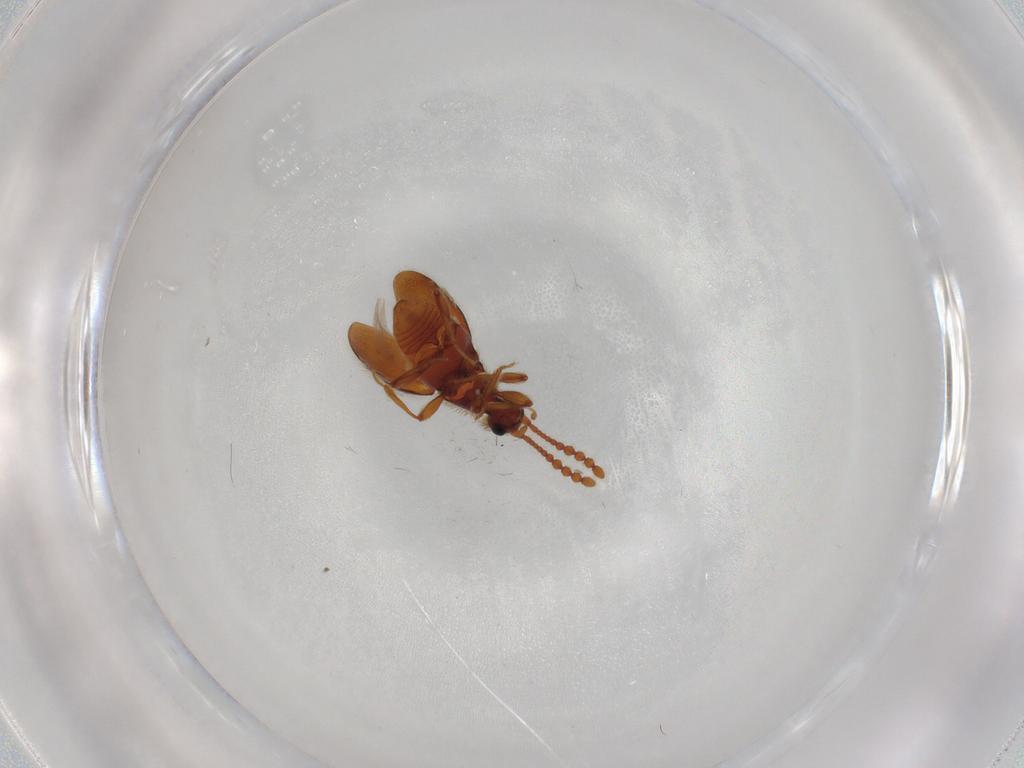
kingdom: Animalia
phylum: Arthropoda
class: Insecta
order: Coleoptera
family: Staphylinidae
